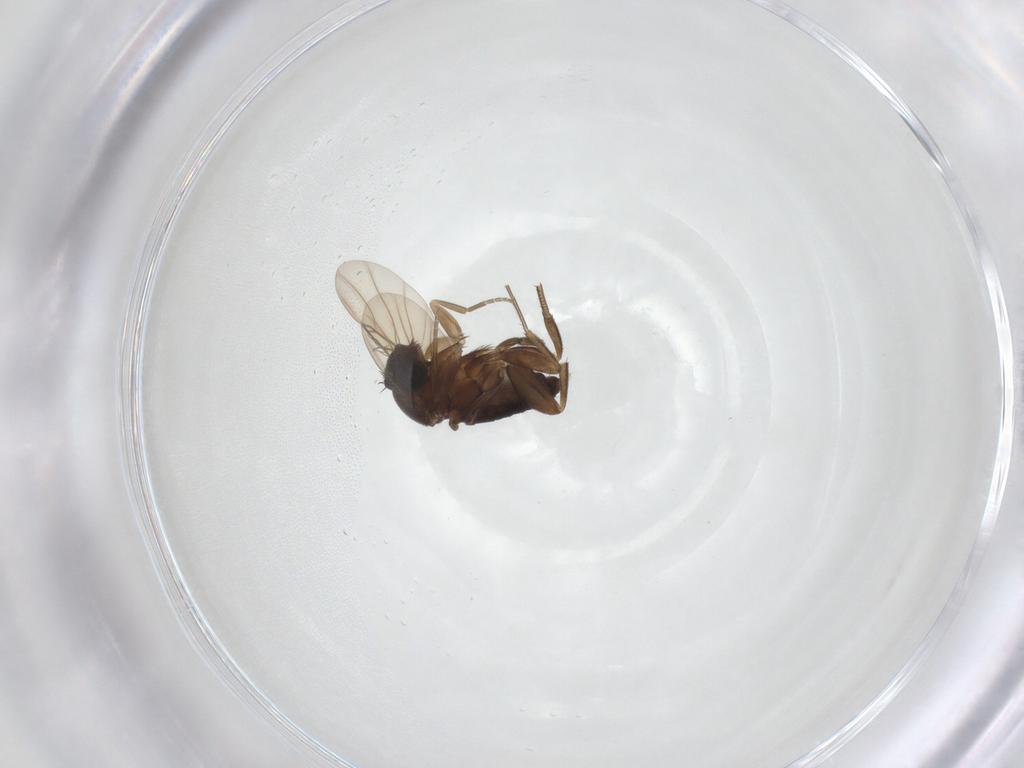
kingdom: Animalia
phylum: Arthropoda
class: Insecta
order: Diptera
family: Phoridae
